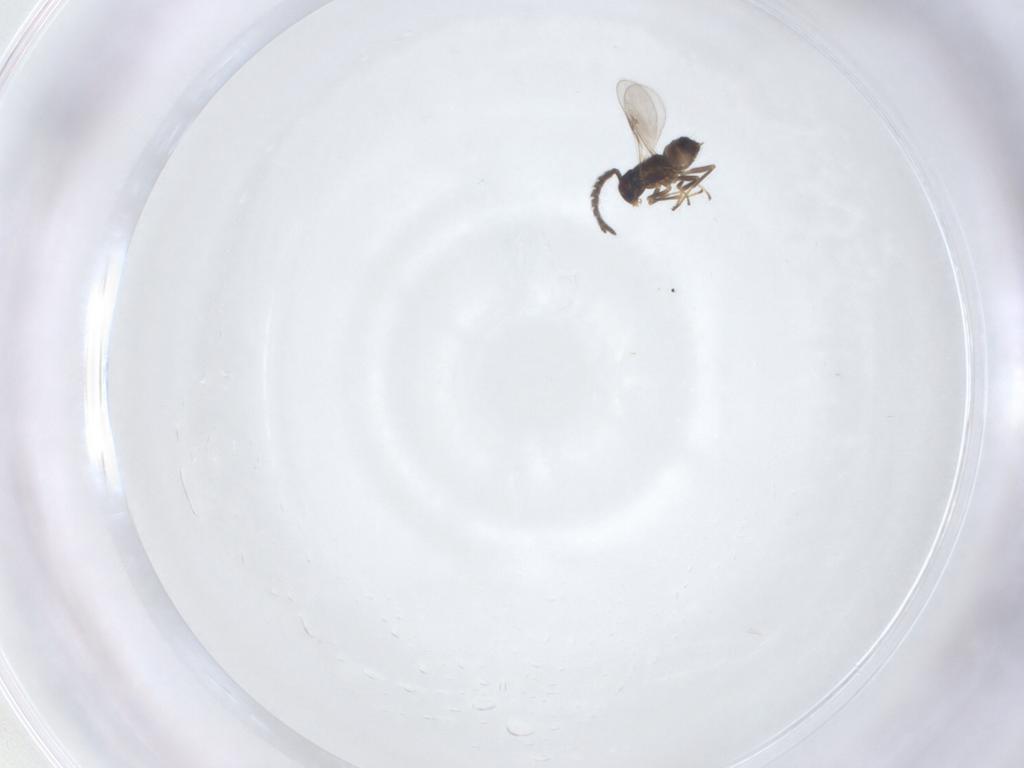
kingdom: Animalia
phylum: Arthropoda
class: Insecta
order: Hymenoptera
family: Encyrtidae
